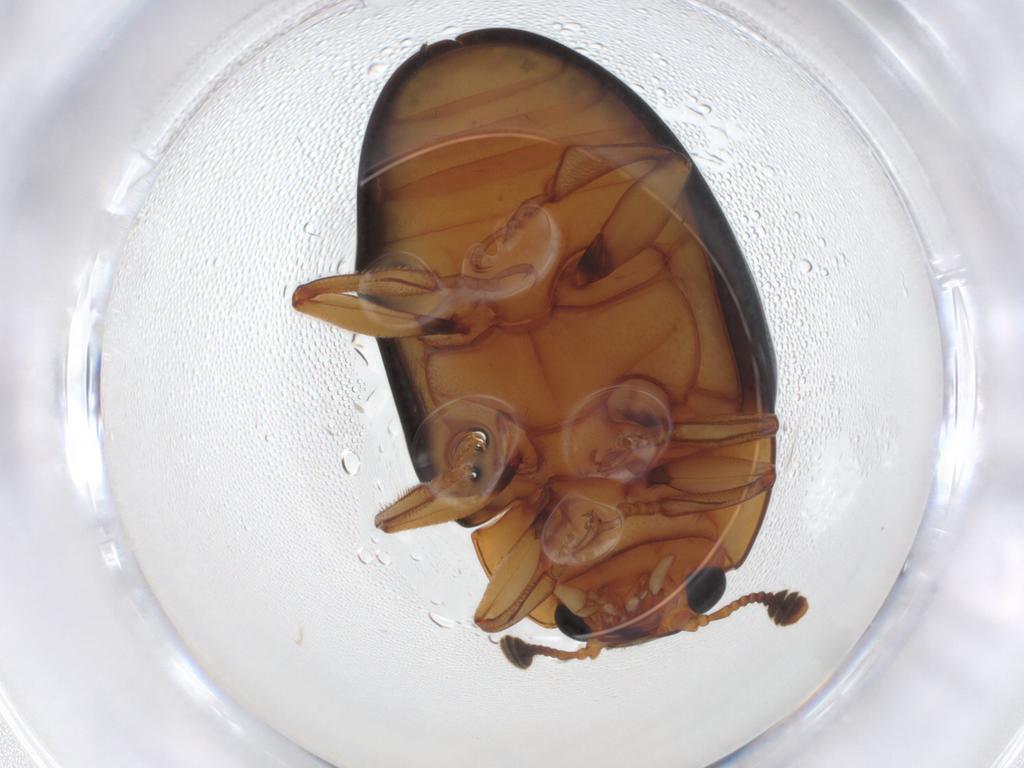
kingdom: Animalia
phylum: Arthropoda
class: Insecta
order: Coleoptera
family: Erotylidae
